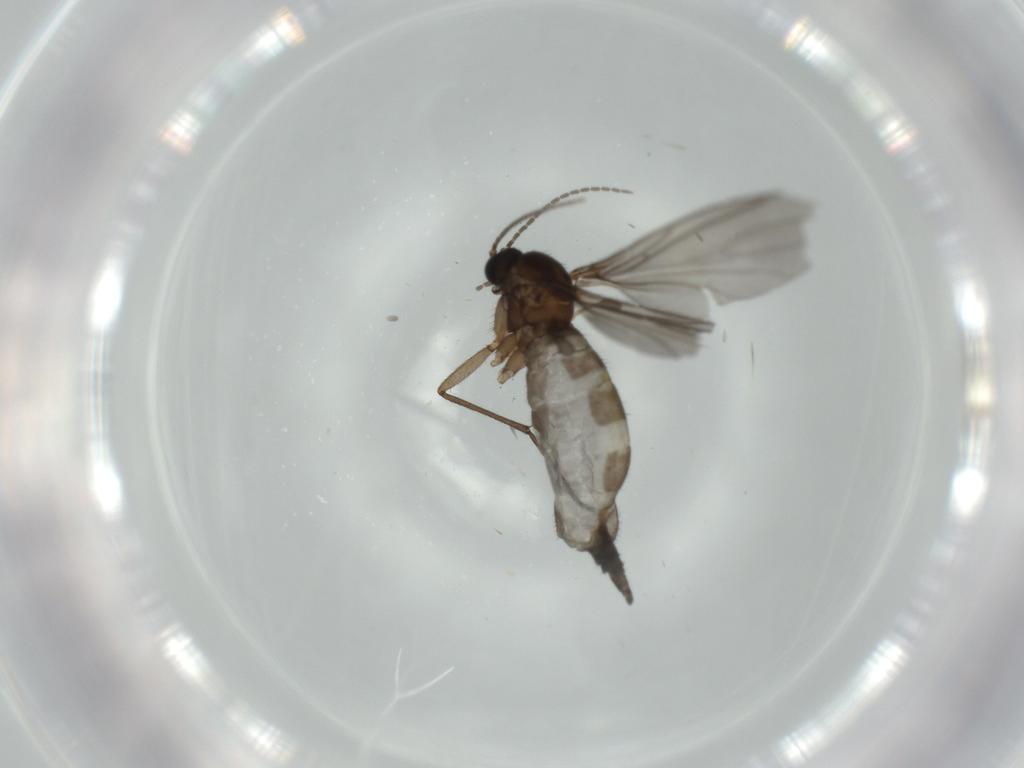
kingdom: Animalia
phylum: Arthropoda
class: Insecta
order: Diptera
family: Sciaridae
